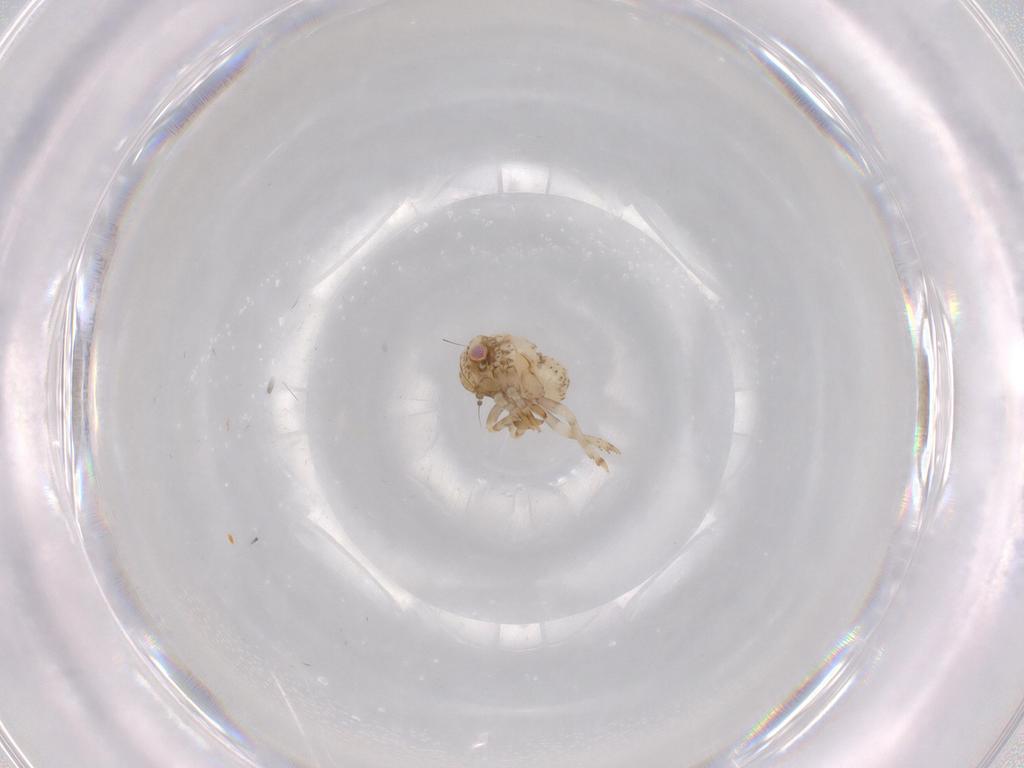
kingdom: Animalia
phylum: Arthropoda
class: Insecta
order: Hemiptera
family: Acanaloniidae
